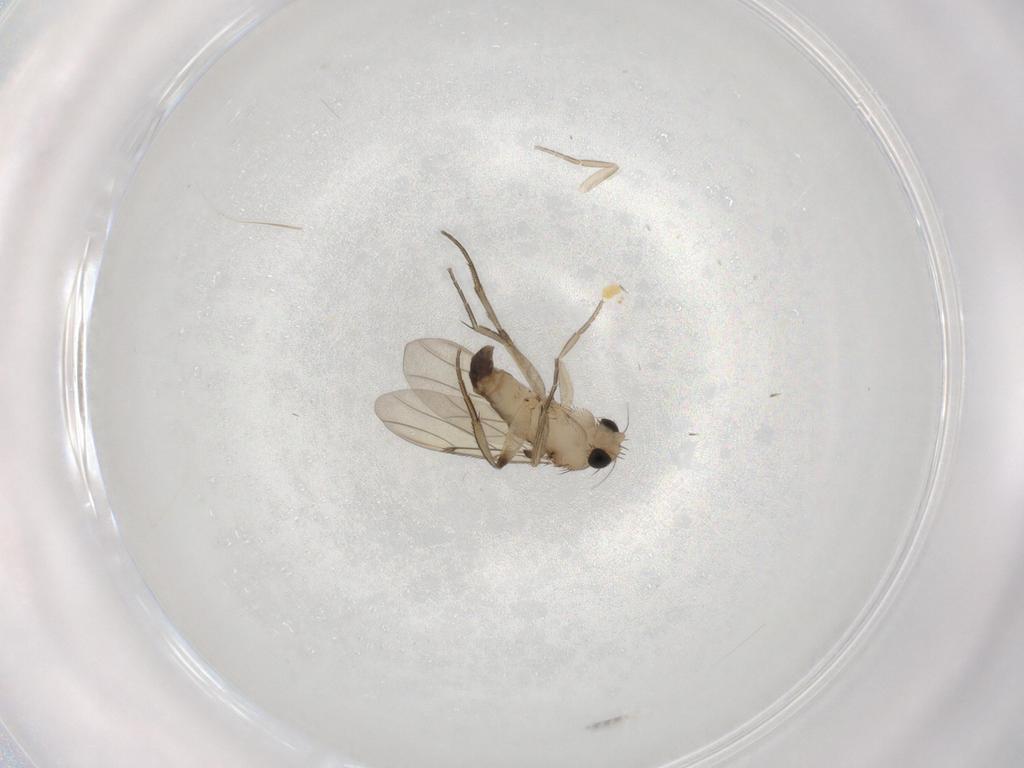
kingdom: Animalia
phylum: Arthropoda
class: Insecta
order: Diptera
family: Phoridae
